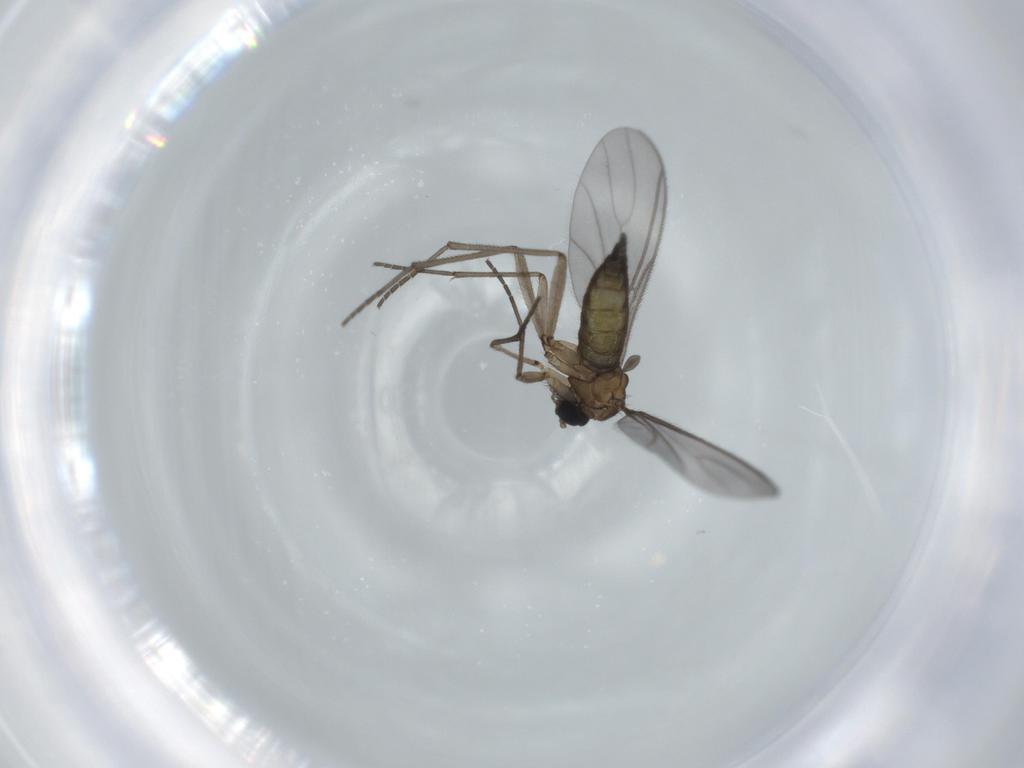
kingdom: Animalia
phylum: Arthropoda
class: Insecta
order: Diptera
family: Sciaridae
